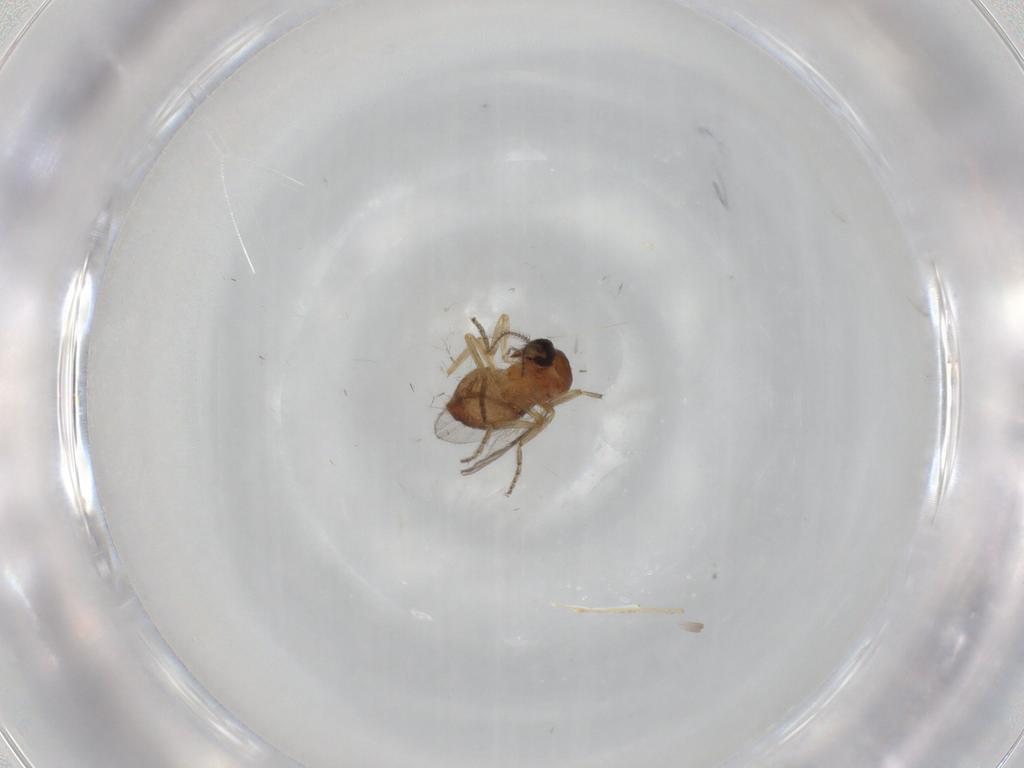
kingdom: Animalia
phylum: Arthropoda
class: Insecta
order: Diptera
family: Ceratopogonidae
